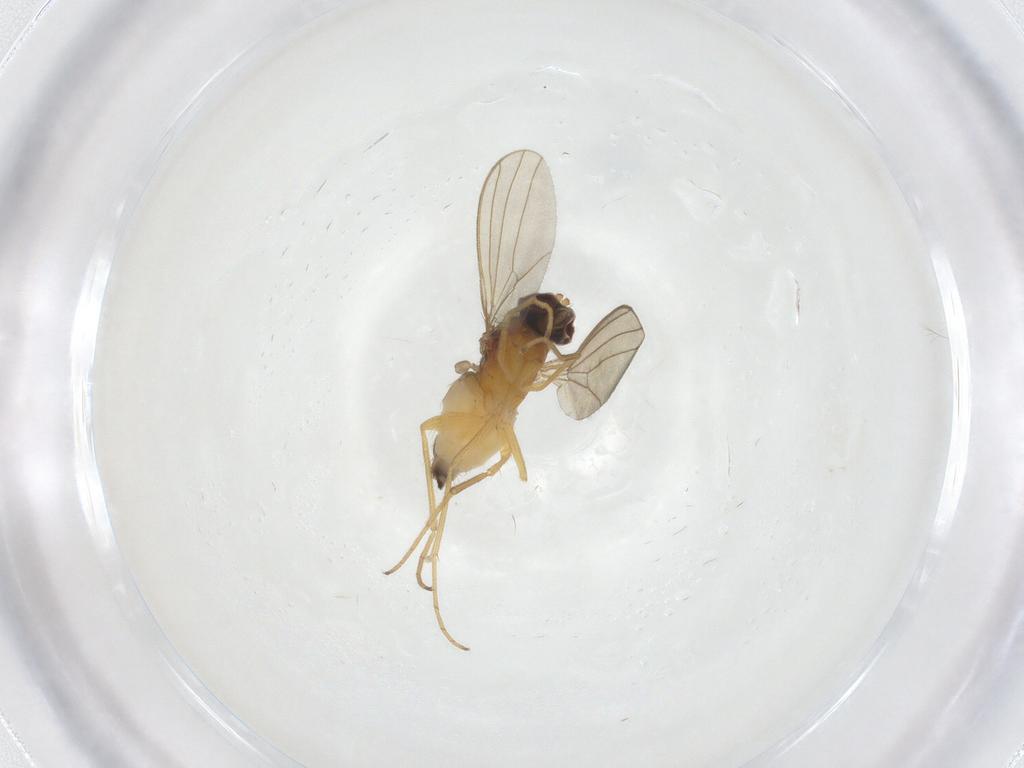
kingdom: Animalia
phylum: Arthropoda
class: Insecta
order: Diptera
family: Dolichopodidae
